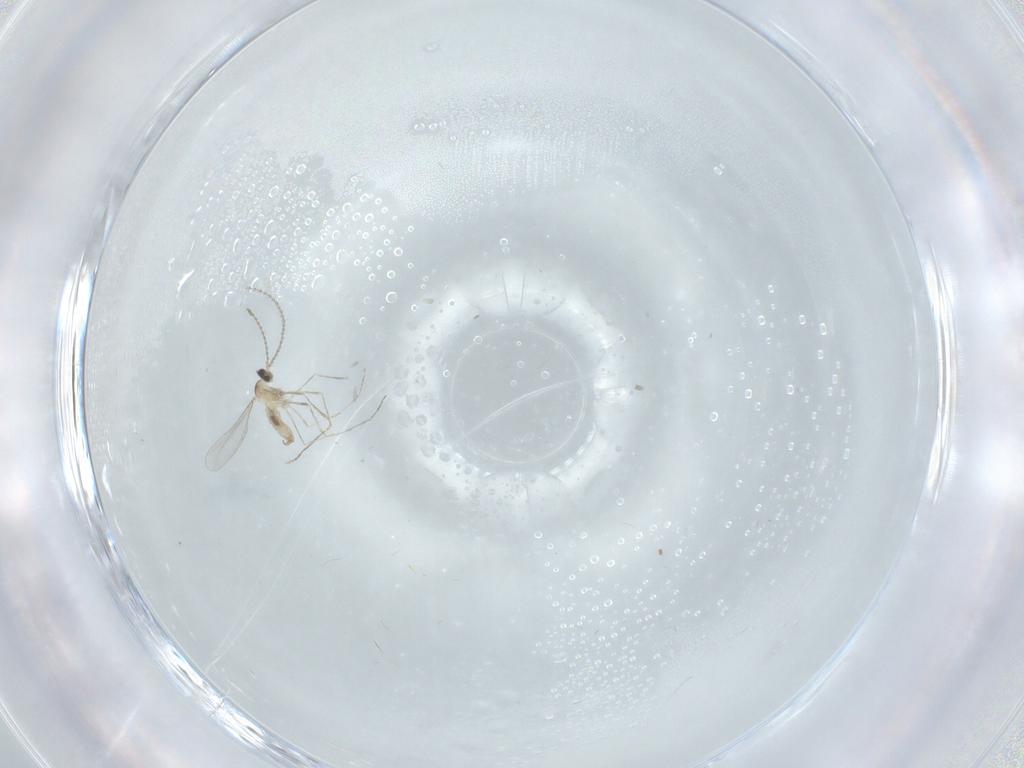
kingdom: Animalia
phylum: Arthropoda
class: Insecta
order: Diptera
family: Cecidomyiidae
